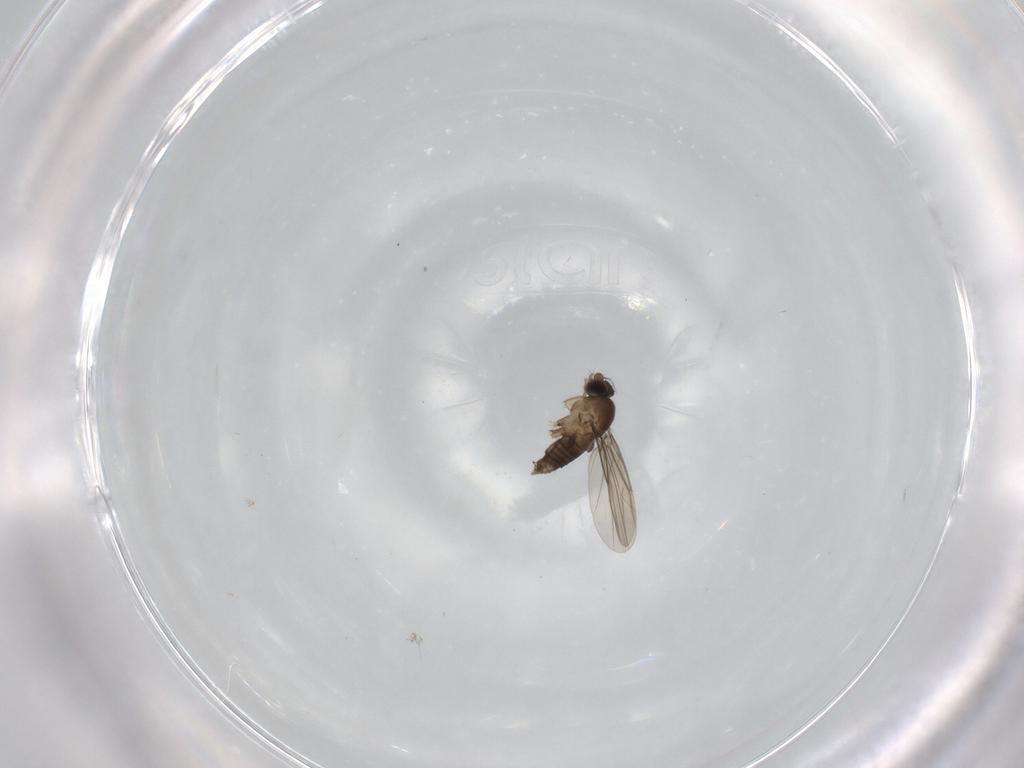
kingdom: Animalia
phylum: Arthropoda
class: Insecta
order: Diptera
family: Phoridae
